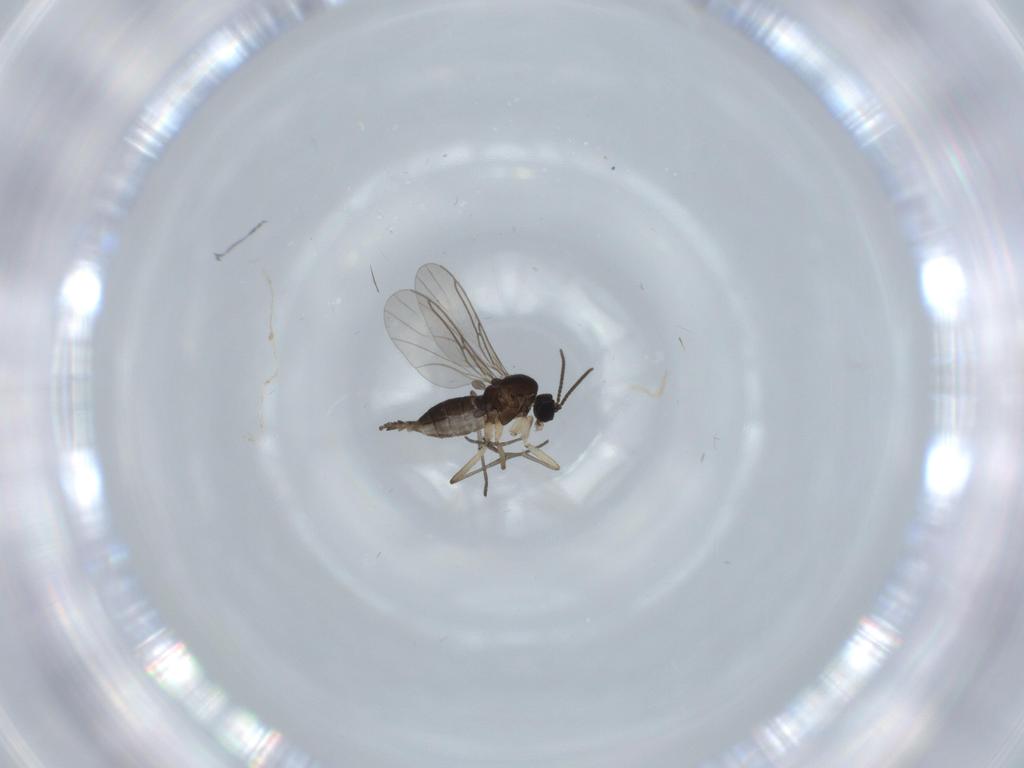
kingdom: Animalia
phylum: Arthropoda
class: Insecta
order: Diptera
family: Sciaridae
